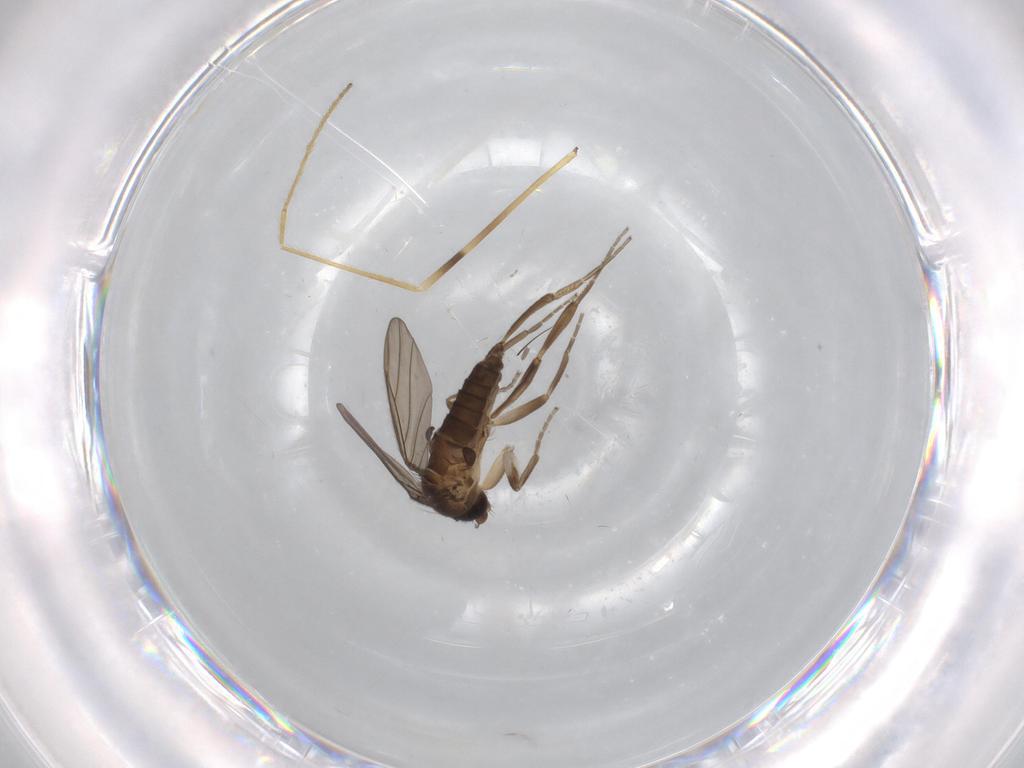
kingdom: Animalia
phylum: Arthropoda
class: Insecta
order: Diptera
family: Limoniidae
